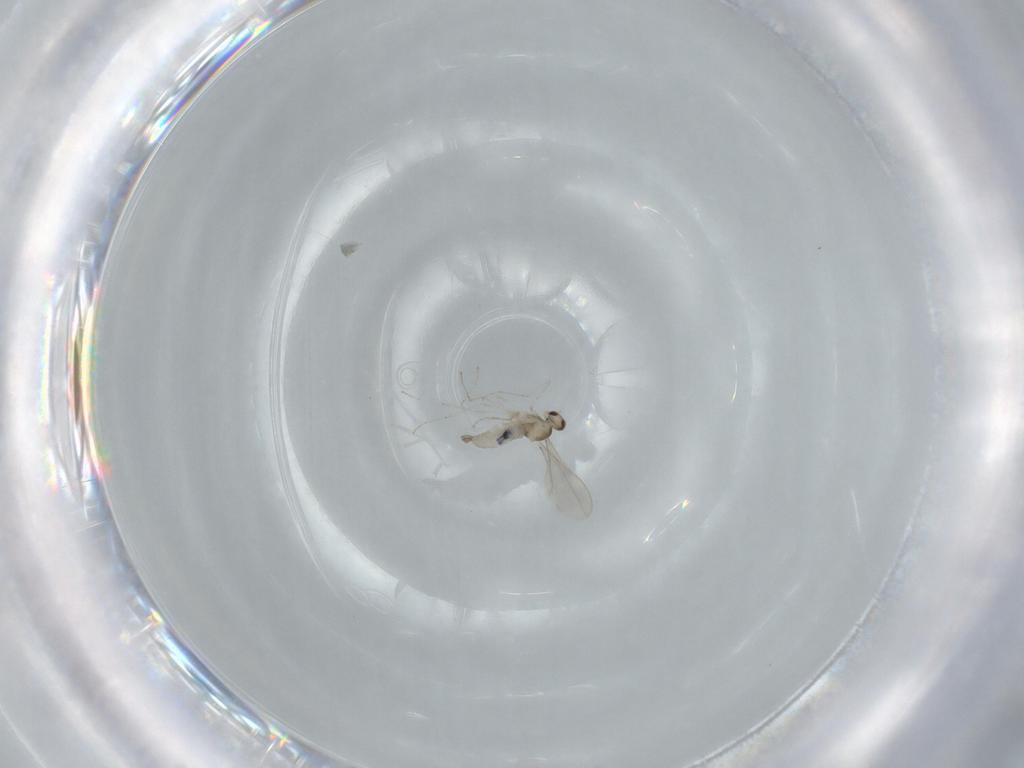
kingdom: Animalia
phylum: Arthropoda
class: Insecta
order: Diptera
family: Cecidomyiidae
